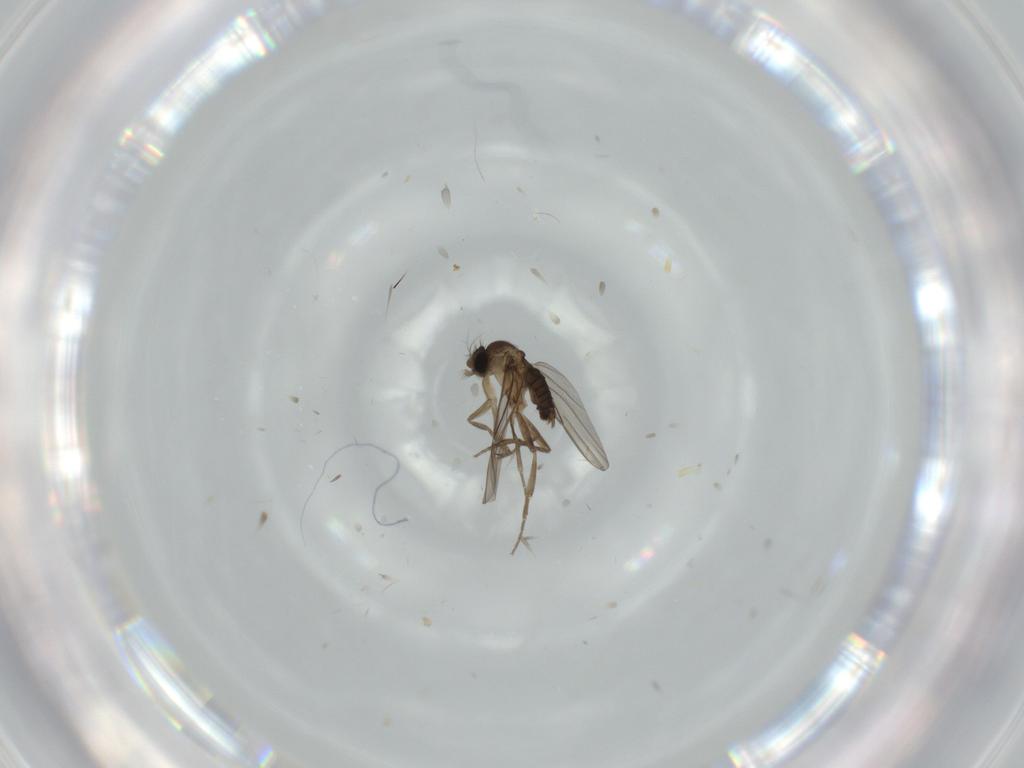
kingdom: Animalia
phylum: Arthropoda
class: Insecta
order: Diptera
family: Phoridae
